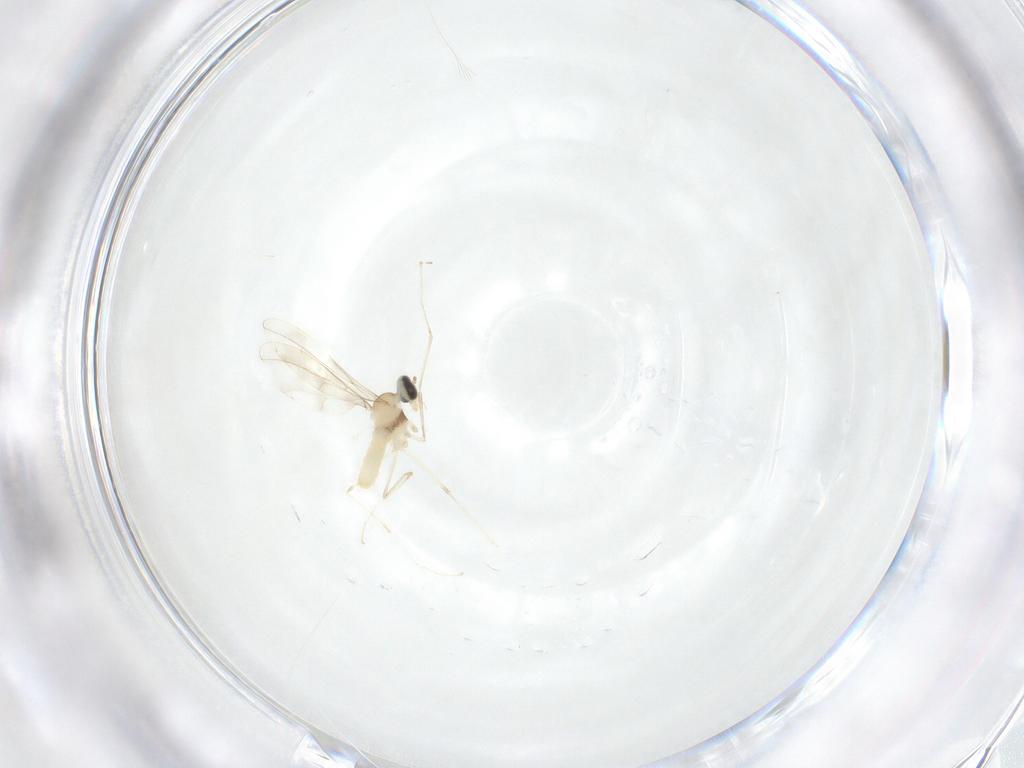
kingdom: Animalia
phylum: Arthropoda
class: Insecta
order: Diptera
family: Cecidomyiidae
